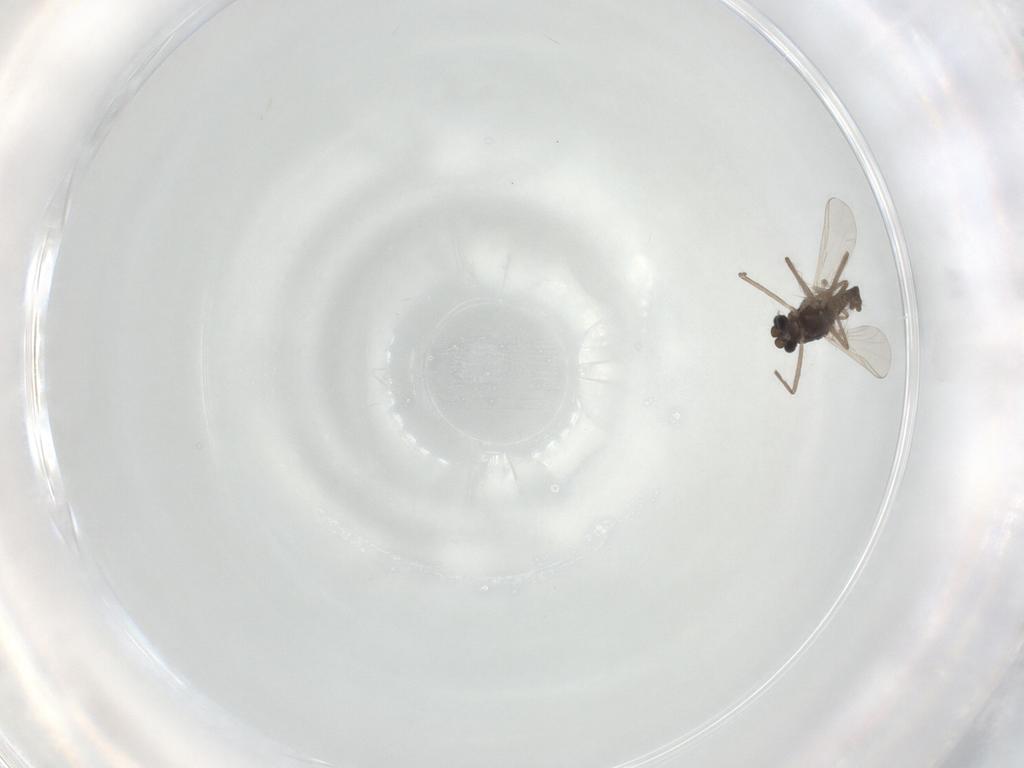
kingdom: Animalia
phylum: Arthropoda
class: Insecta
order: Diptera
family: Chironomidae
